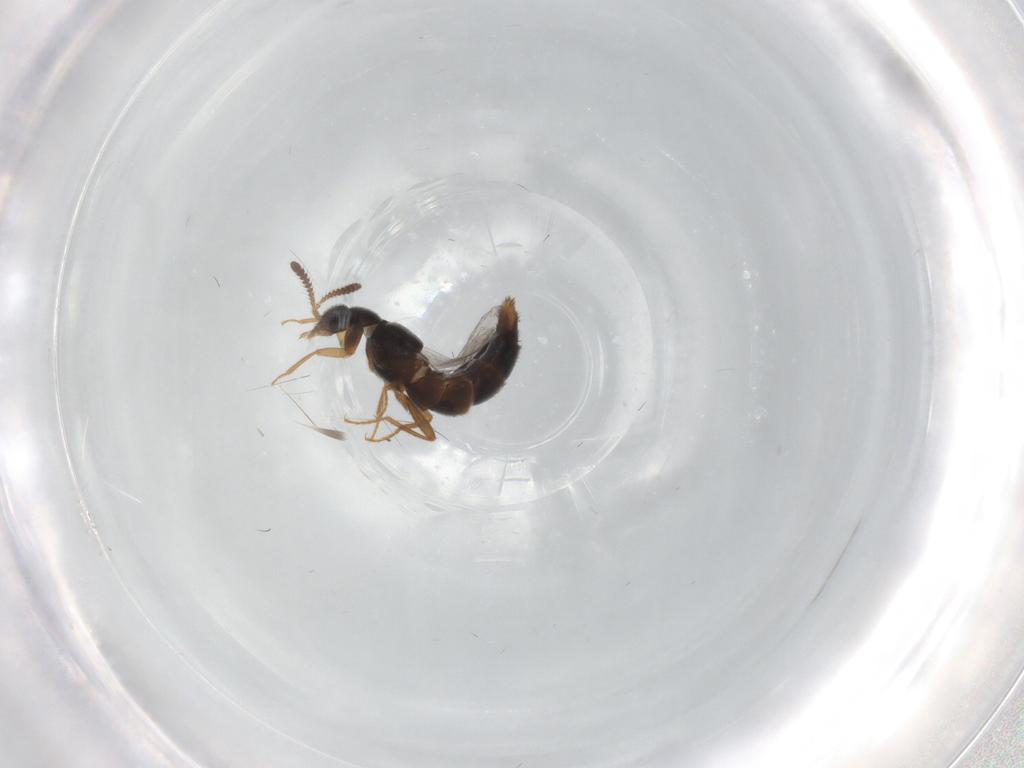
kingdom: Animalia
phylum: Arthropoda
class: Insecta
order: Coleoptera
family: Staphylinidae
